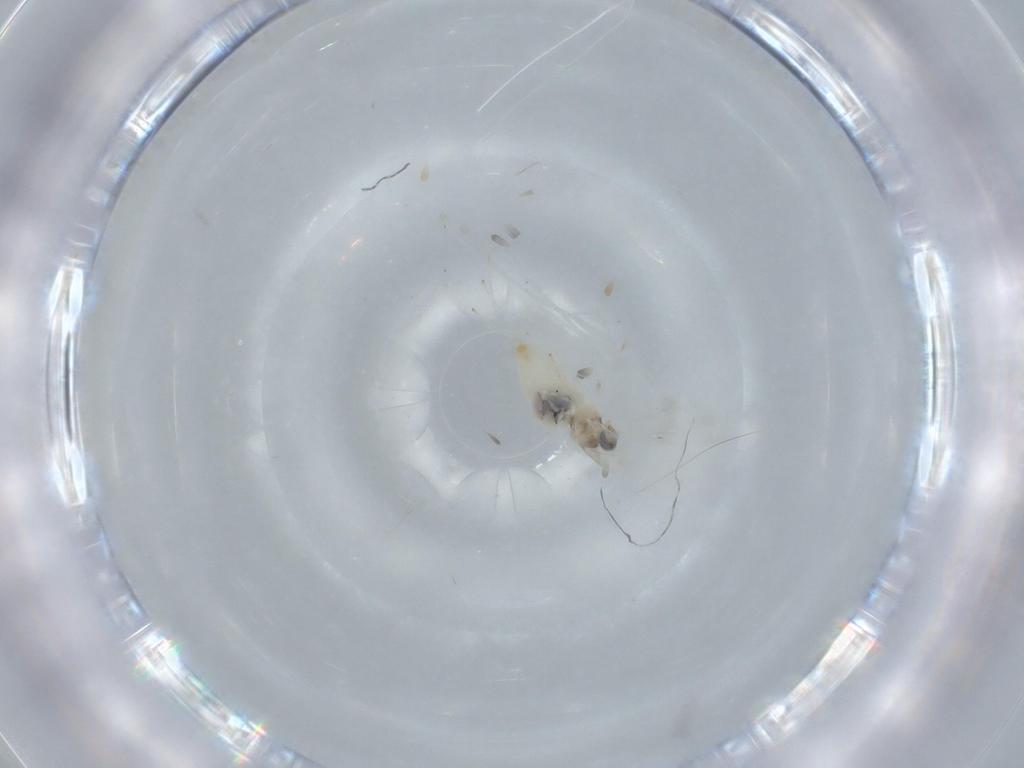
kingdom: Animalia
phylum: Arthropoda
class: Insecta
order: Diptera
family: Cecidomyiidae
